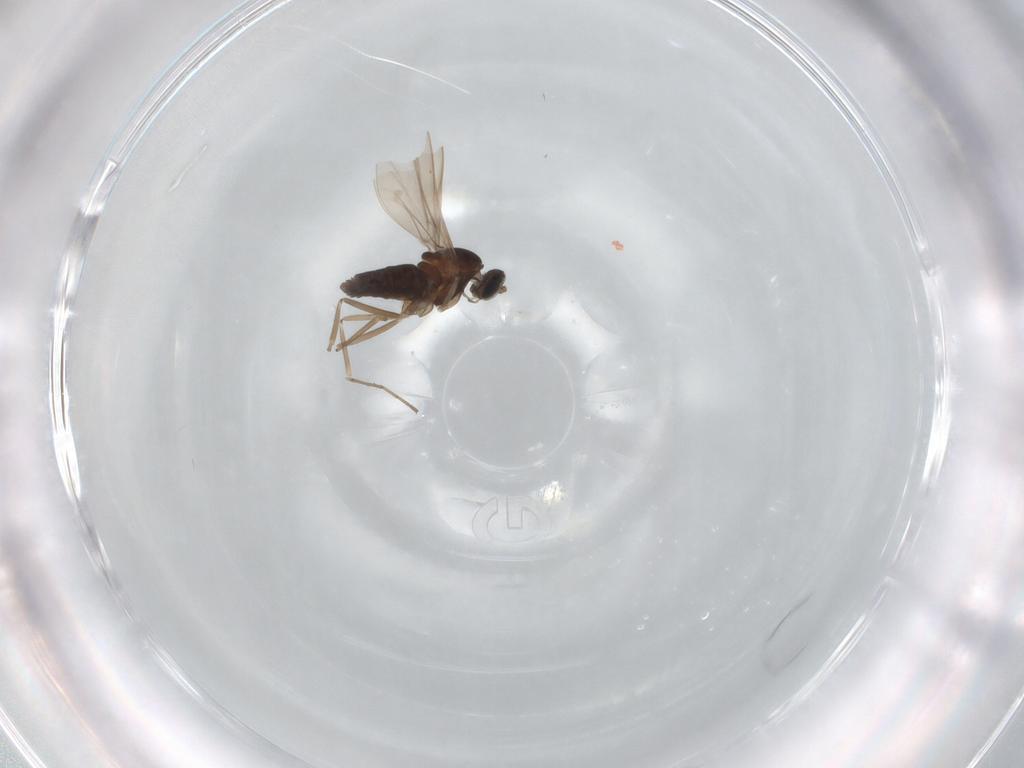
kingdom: Animalia
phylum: Arthropoda
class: Insecta
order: Diptera
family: Cecidomyiidae
